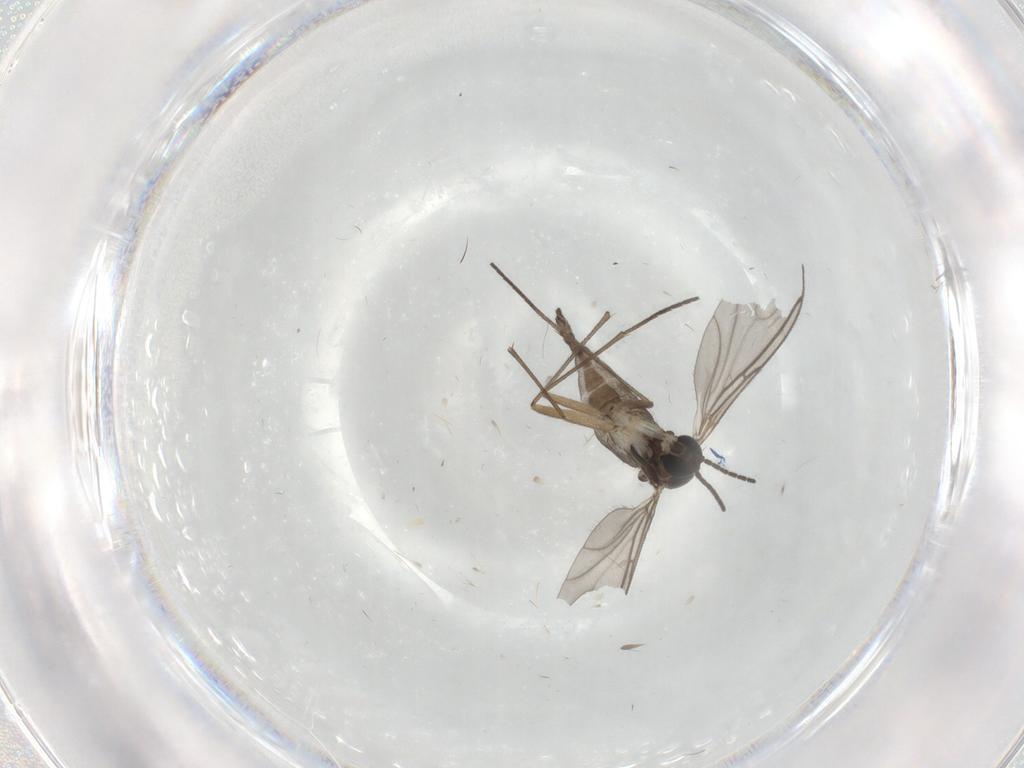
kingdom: Animalia
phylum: Arthropoda
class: Insecta
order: Diptera
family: Sciaridae
